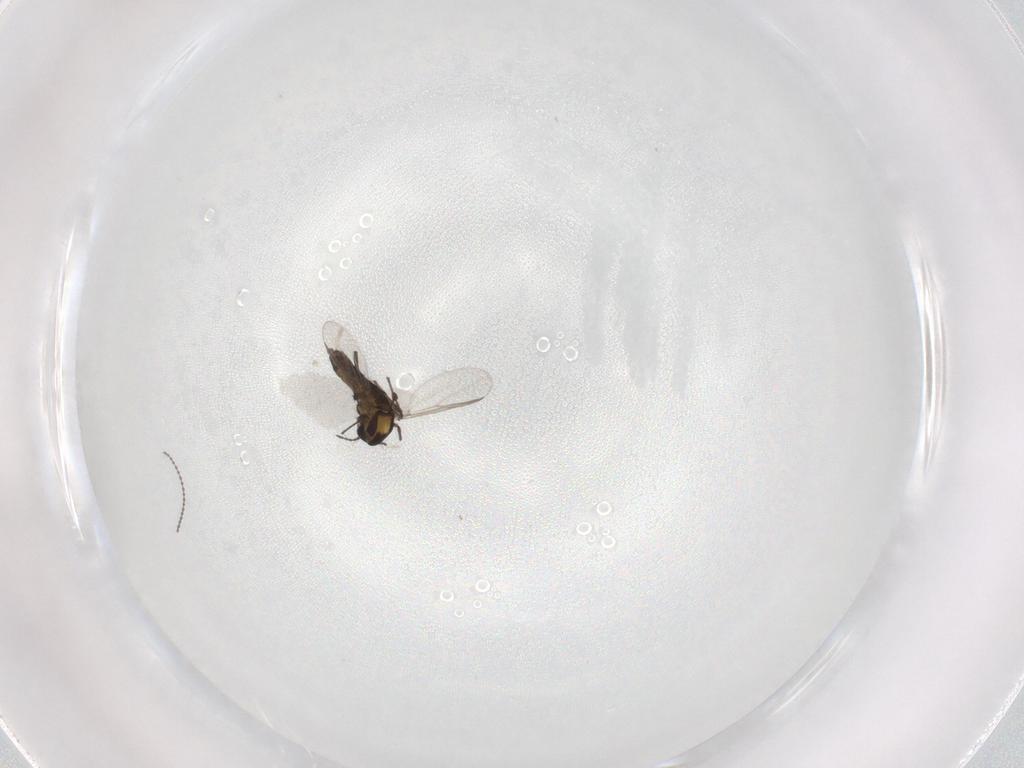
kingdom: Animalia
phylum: Arthropoda
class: Insecta
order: Diptera
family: Chironomidae
